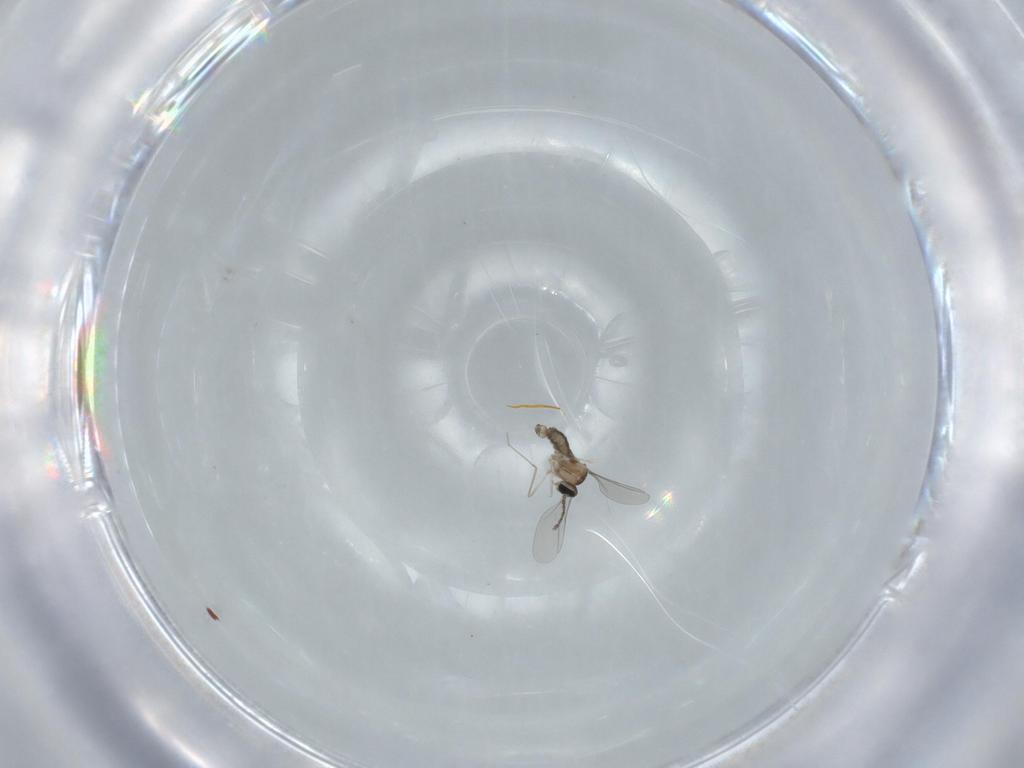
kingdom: Animalia
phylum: Arthropoda
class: Insecta
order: Diptera
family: Cecidomyiidae
